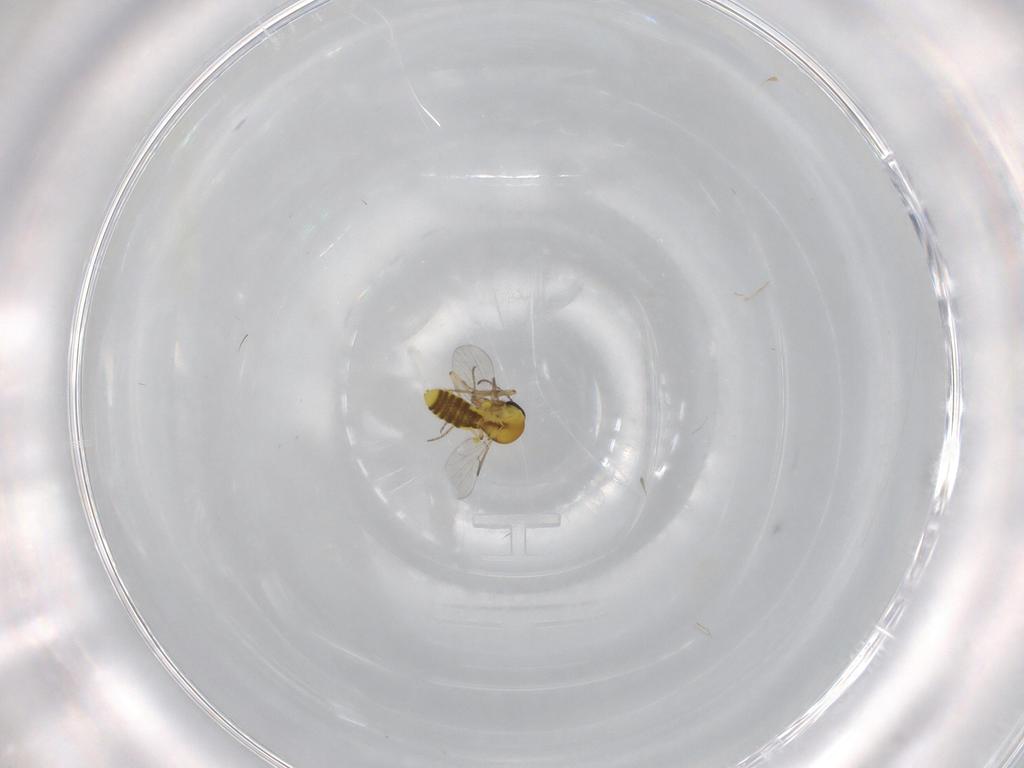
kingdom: Animalia
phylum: Arthropoda
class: Insecta
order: Diptera
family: Ceratopogonidae
